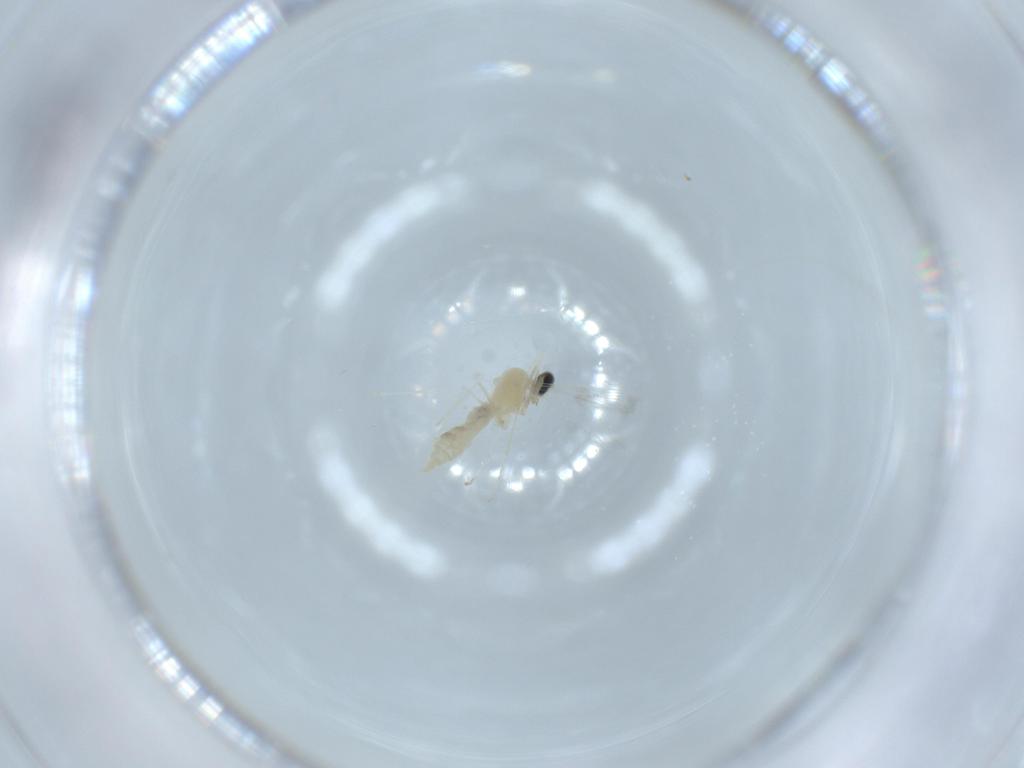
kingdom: Animalia
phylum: Arthropoda
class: Insecta
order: Diptera
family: Cecidomyiidae
